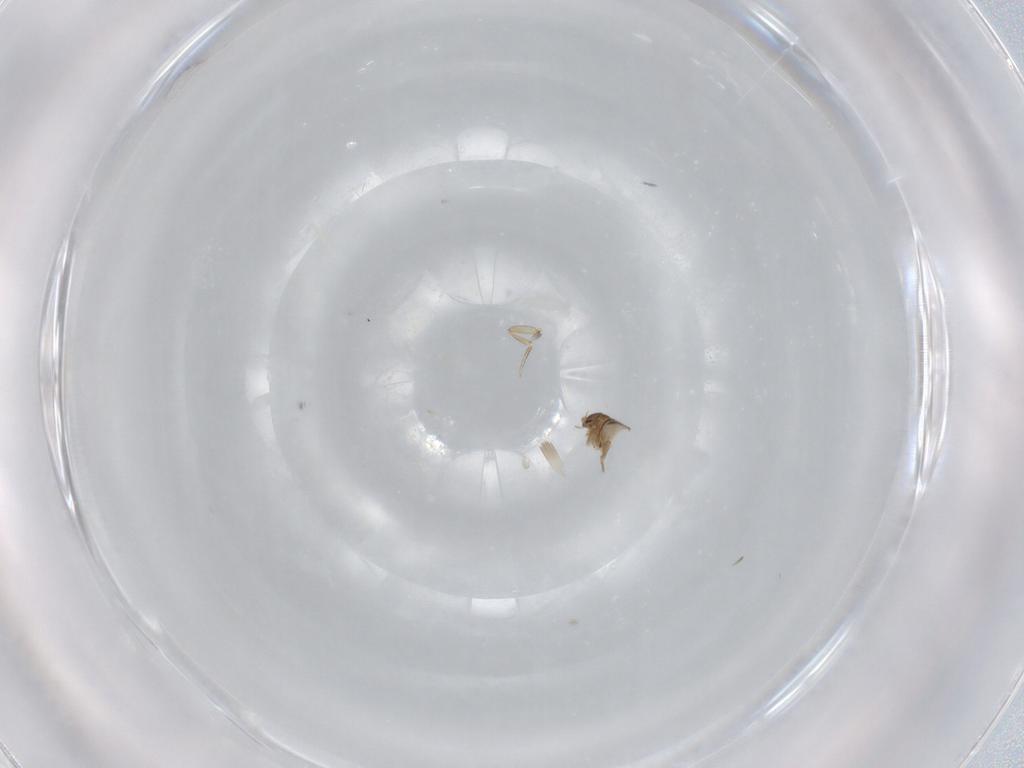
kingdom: Animalia
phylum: Arthropoda
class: Insecta
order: Diptera
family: Phoridae
